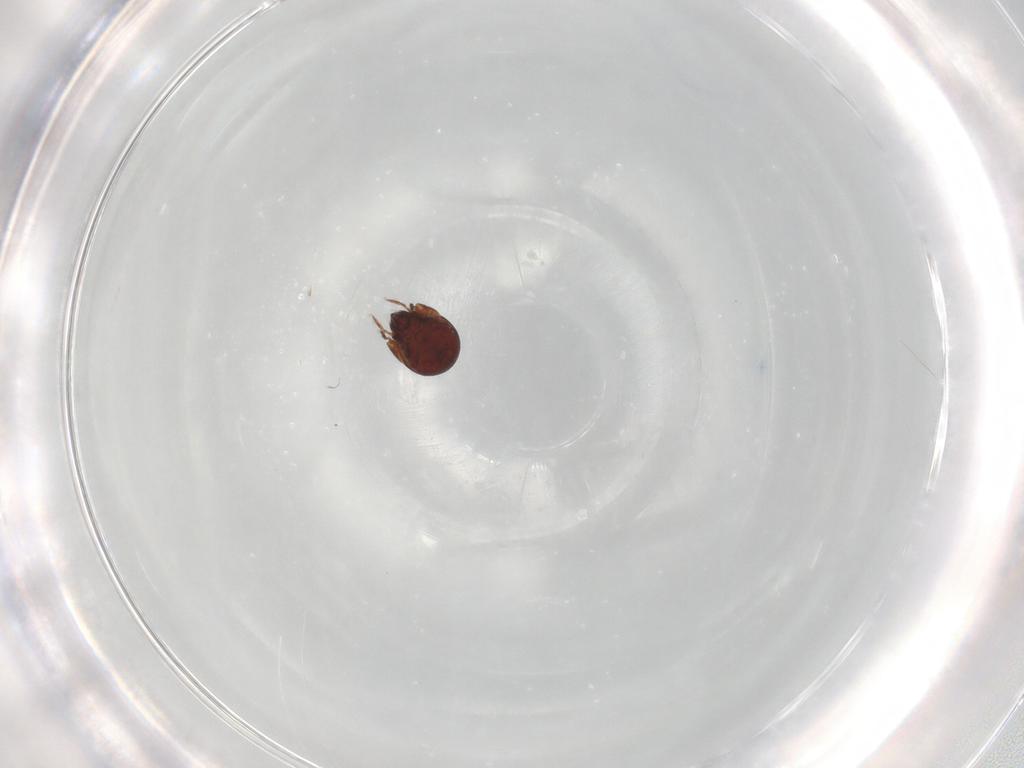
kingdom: Animalia
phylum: Arthropoda
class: Arachnida
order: Sarcoptiformes
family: Humerobatidae
